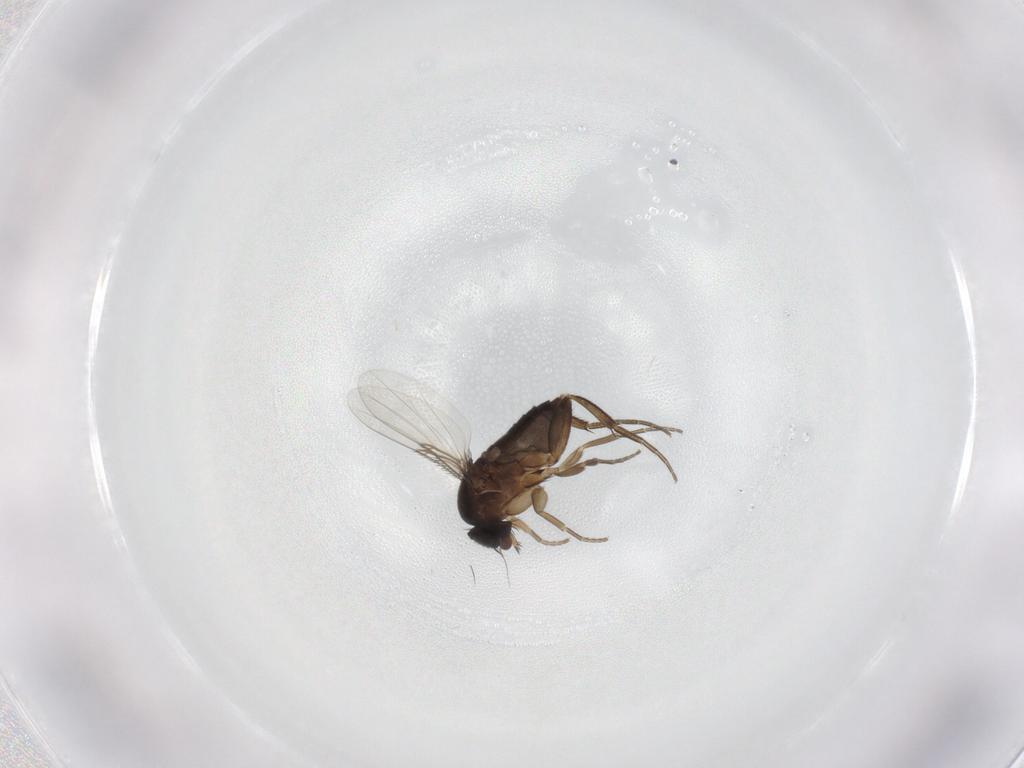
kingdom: Animalia
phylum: Arthropoda
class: Insecta
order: Diptera
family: Phoridae
